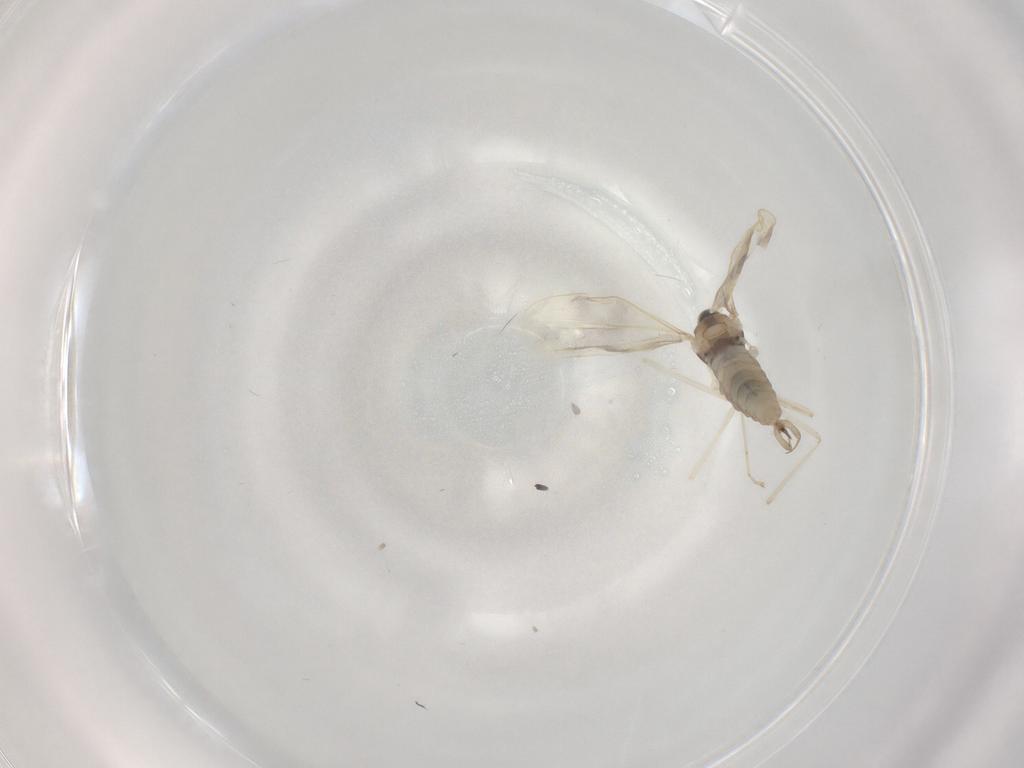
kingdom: Animalia
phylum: Arthropoda
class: Insecta
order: Diptera
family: Cecidomyiidae
